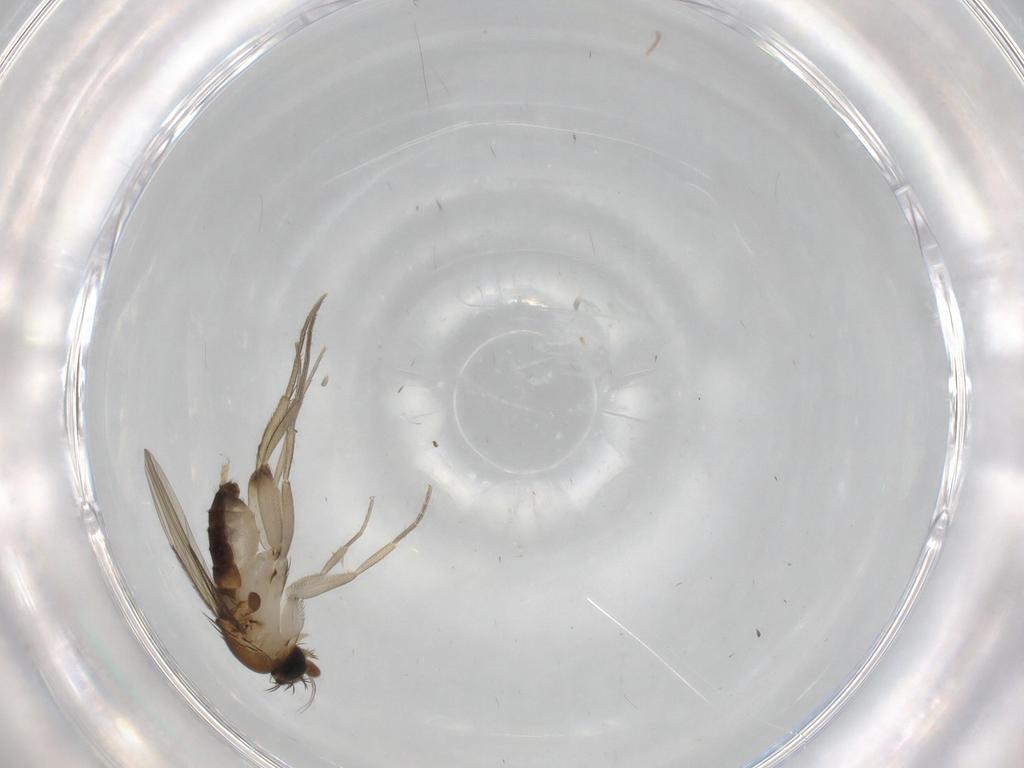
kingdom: Animalia
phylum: Arthropoda
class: Insecta
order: Diptera
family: Phoridae
